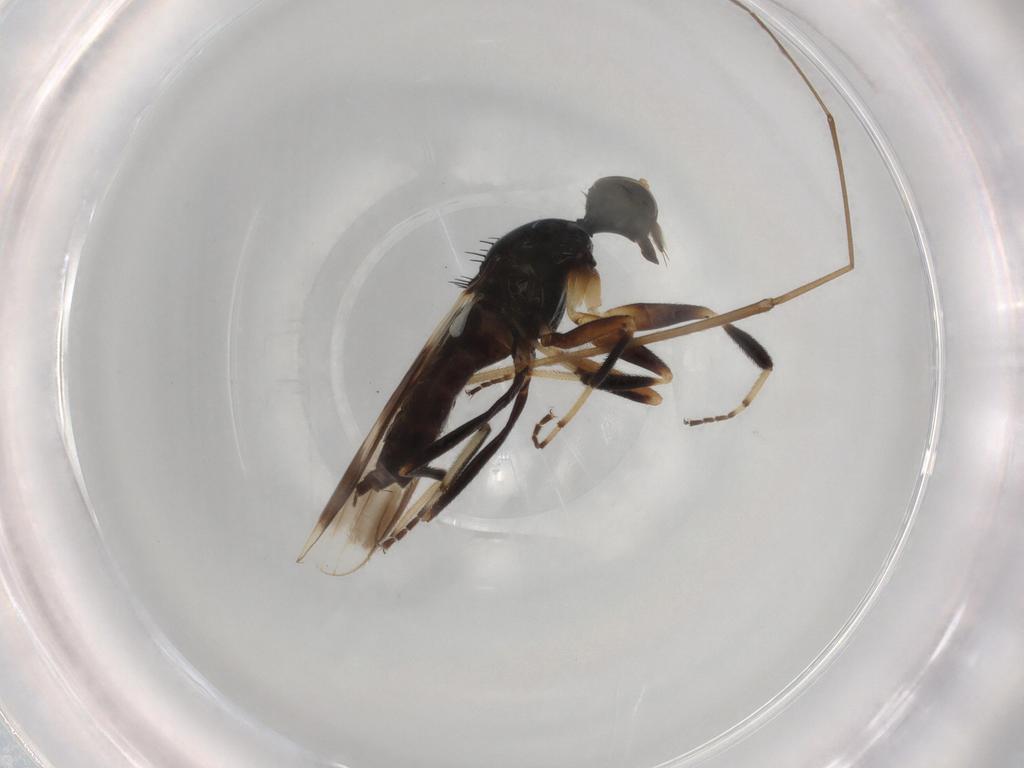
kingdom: Animalia
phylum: Arthropoda
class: Insecta
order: Diptera
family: Hybotidae
